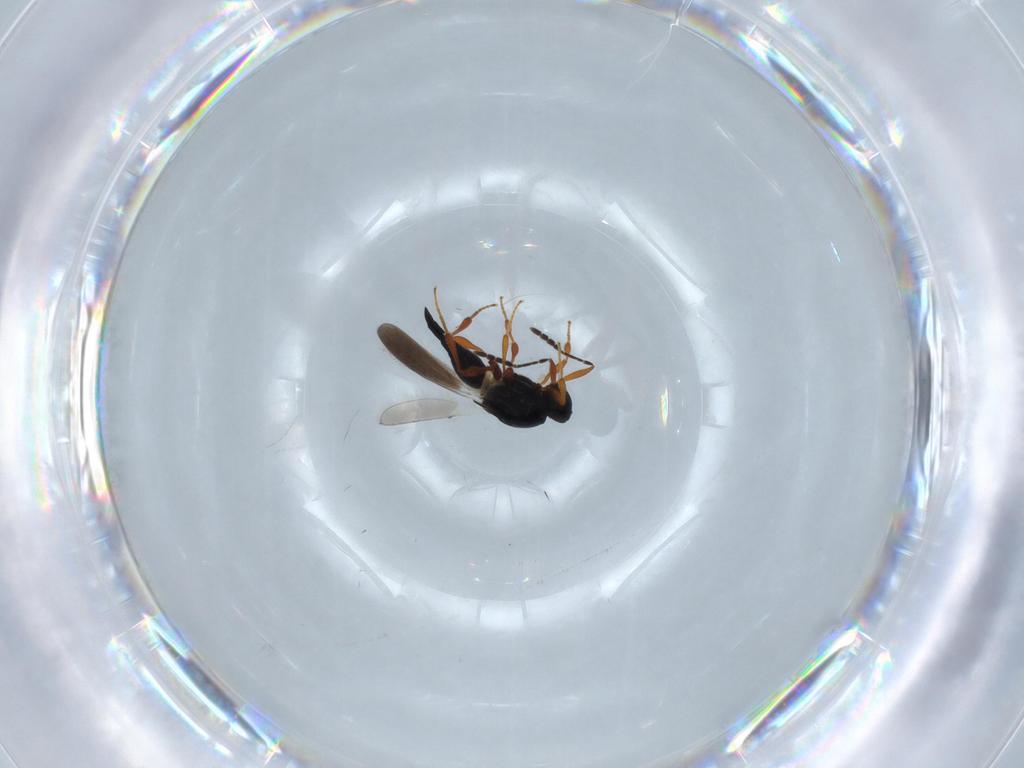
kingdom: Animalia
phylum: Arthropoda
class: Insecta
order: Hymenoptera
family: Platygastridae
